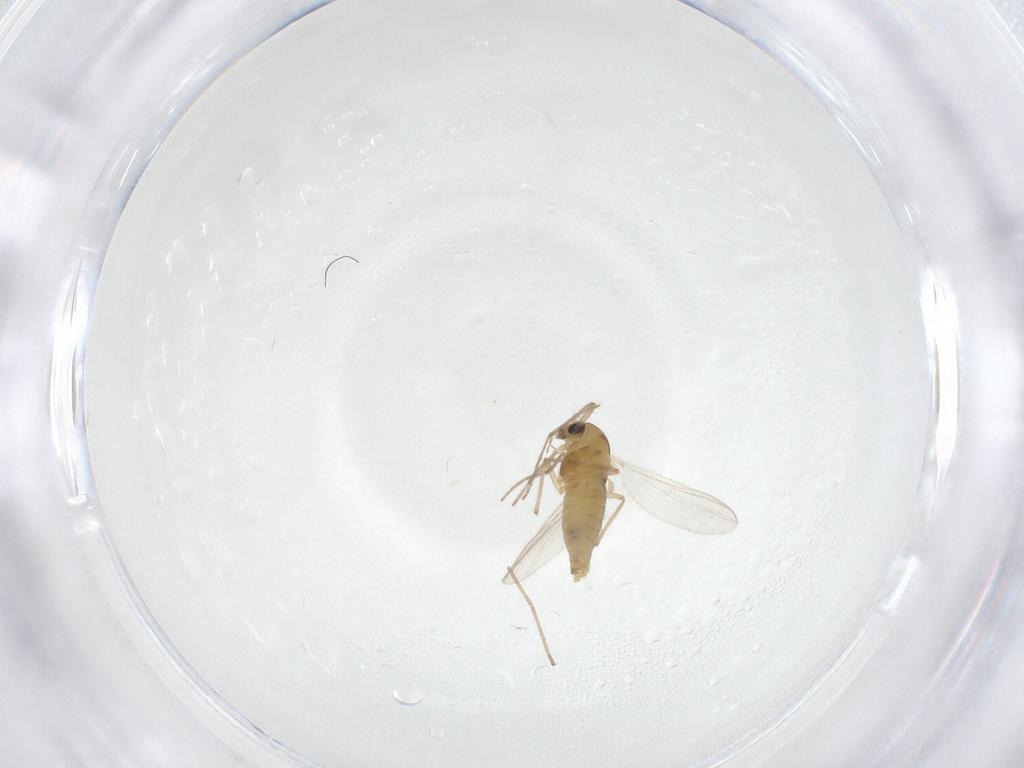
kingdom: Animalia
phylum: Arthropoda
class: Insecta
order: Diptera
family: Chironomidae
